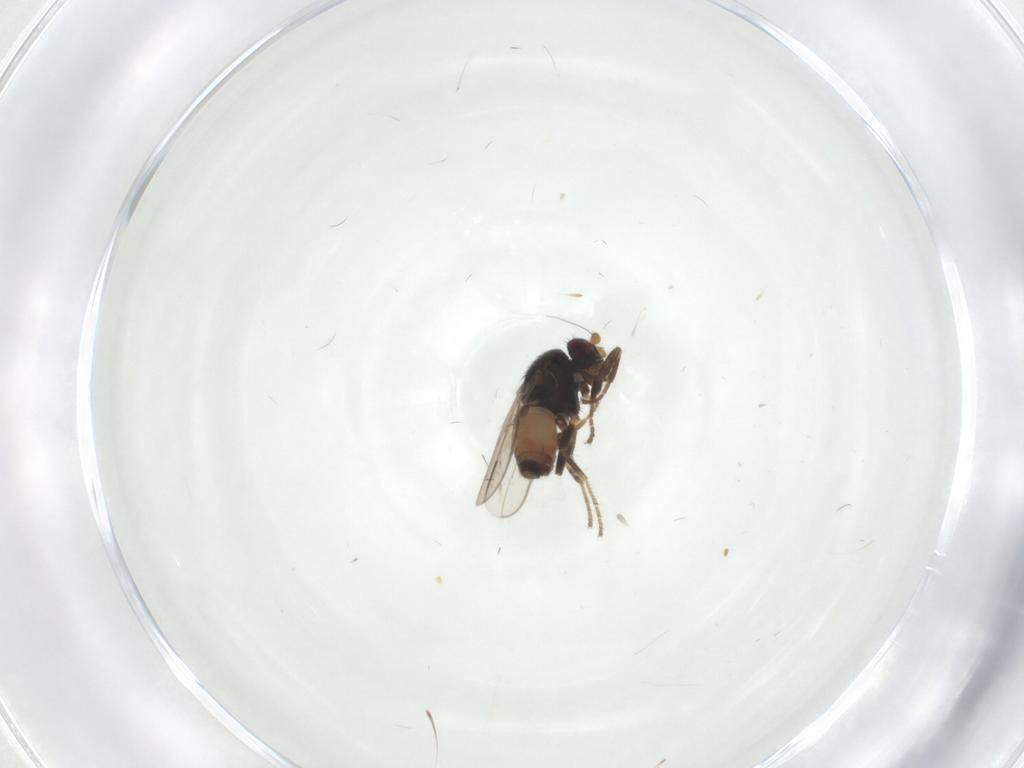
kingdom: Animalia
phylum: Arthropoda
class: Insecta
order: Diptera
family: Sphaeroceridae
